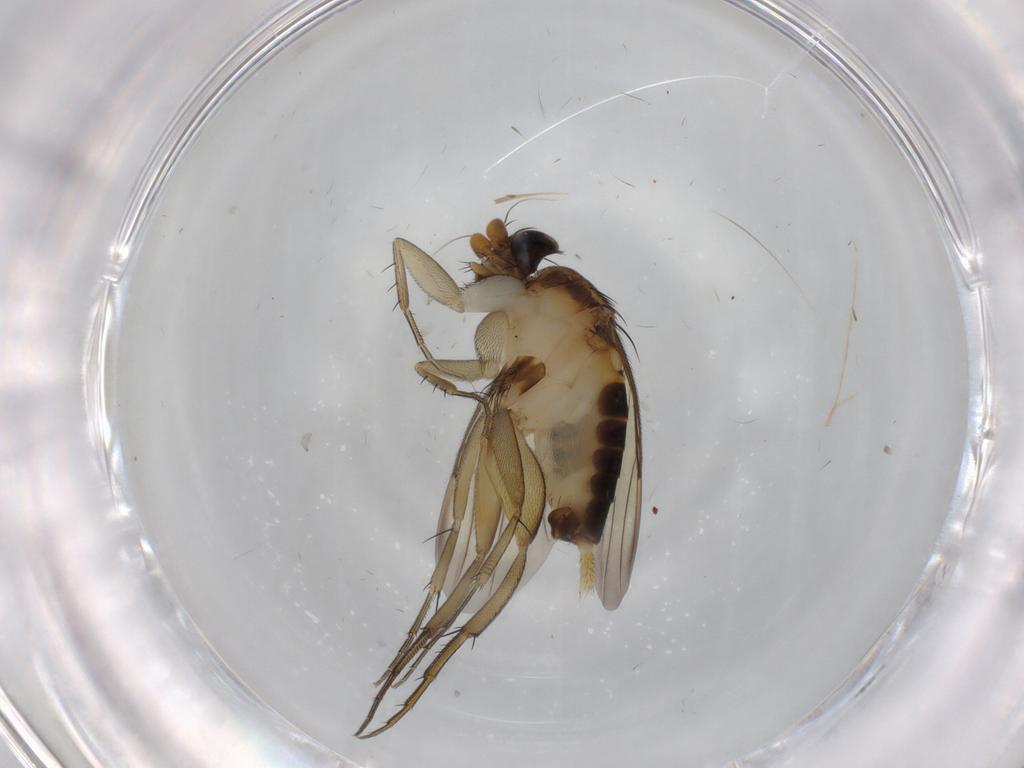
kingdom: Animalia
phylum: Arthropoda
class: Insecta
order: Diptera
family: Phoridae
